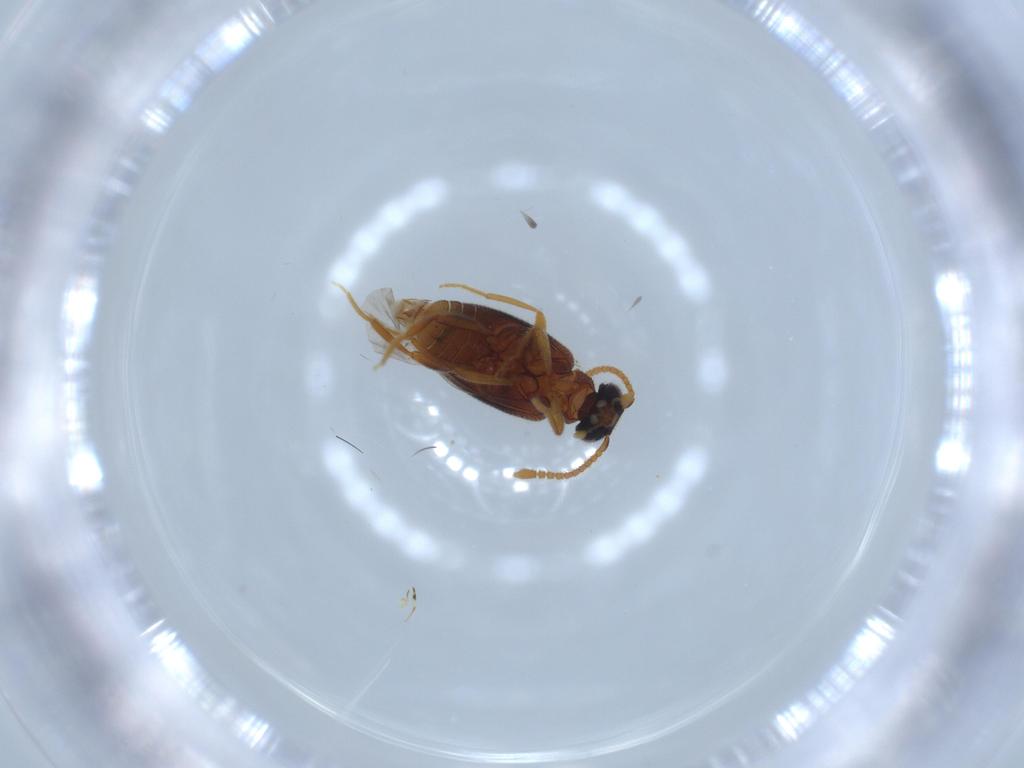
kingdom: Animalia
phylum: Arthropoda
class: Insecta
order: Coleoptera
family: Aderidae
